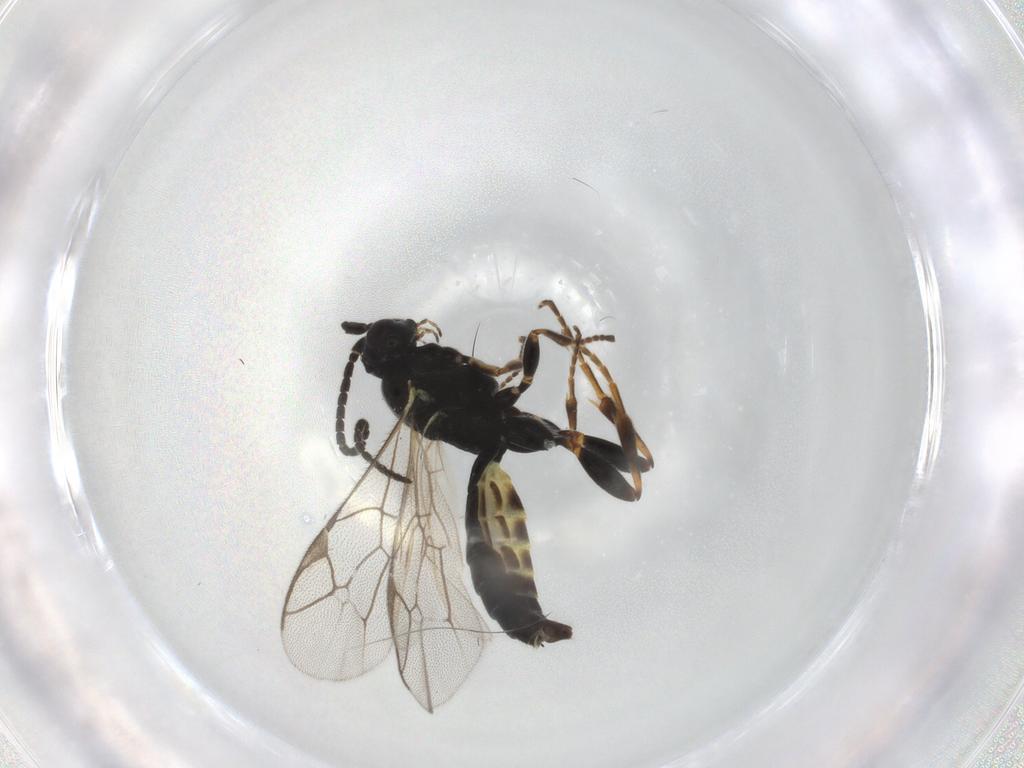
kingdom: Animalia
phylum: Arthropoda
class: Insecta
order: Hymenoptera
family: Ichneumonidae
